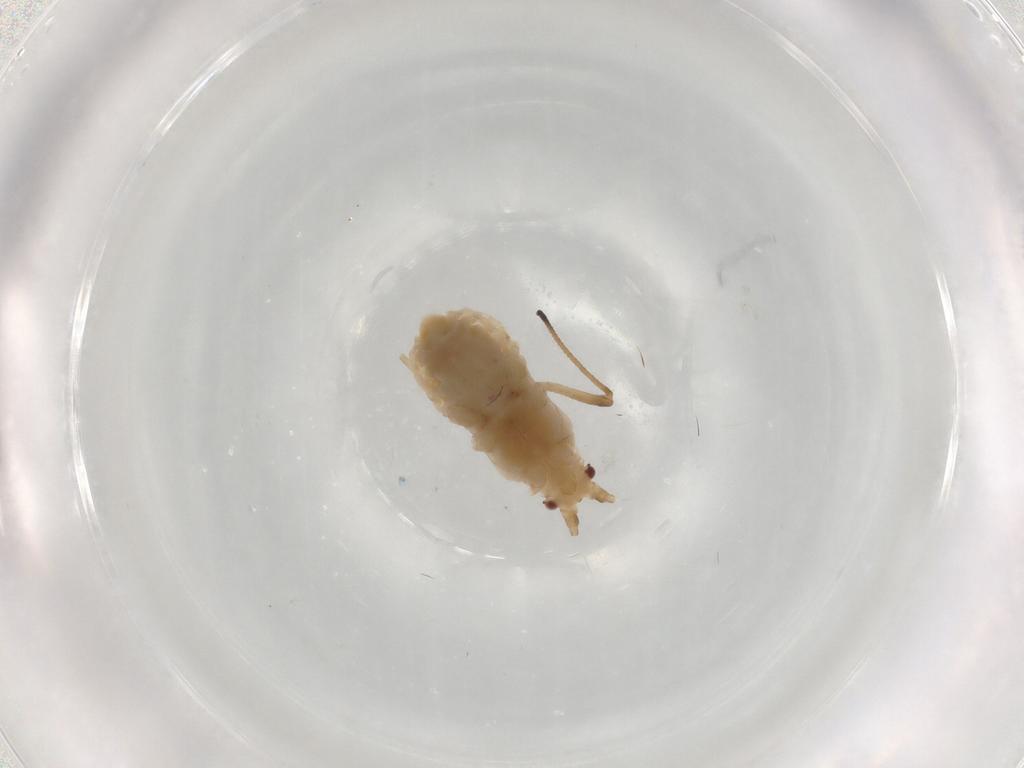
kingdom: Animalia
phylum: Arthropoda
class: Insecta
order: Hemiptera
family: Aphididae
